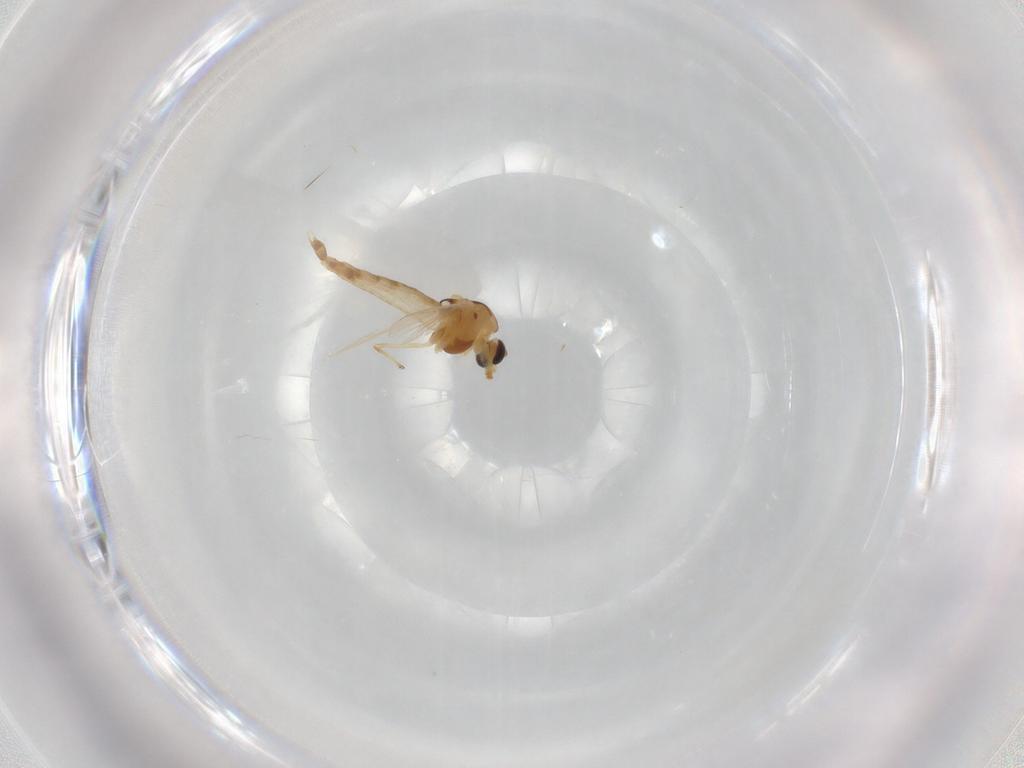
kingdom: Animalia
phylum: Arthropoda
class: Insecta
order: Diptera
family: Chironomidae
